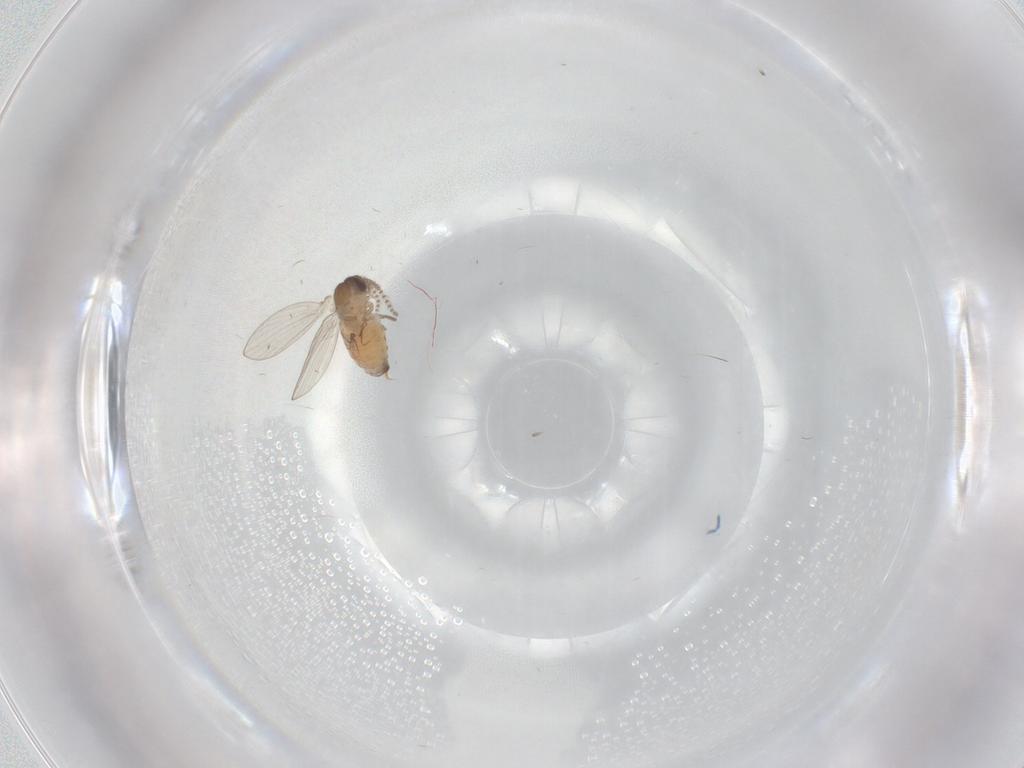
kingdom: Animalia
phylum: Arthropoda
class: Insecta
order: Diptera
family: Psychodidae
